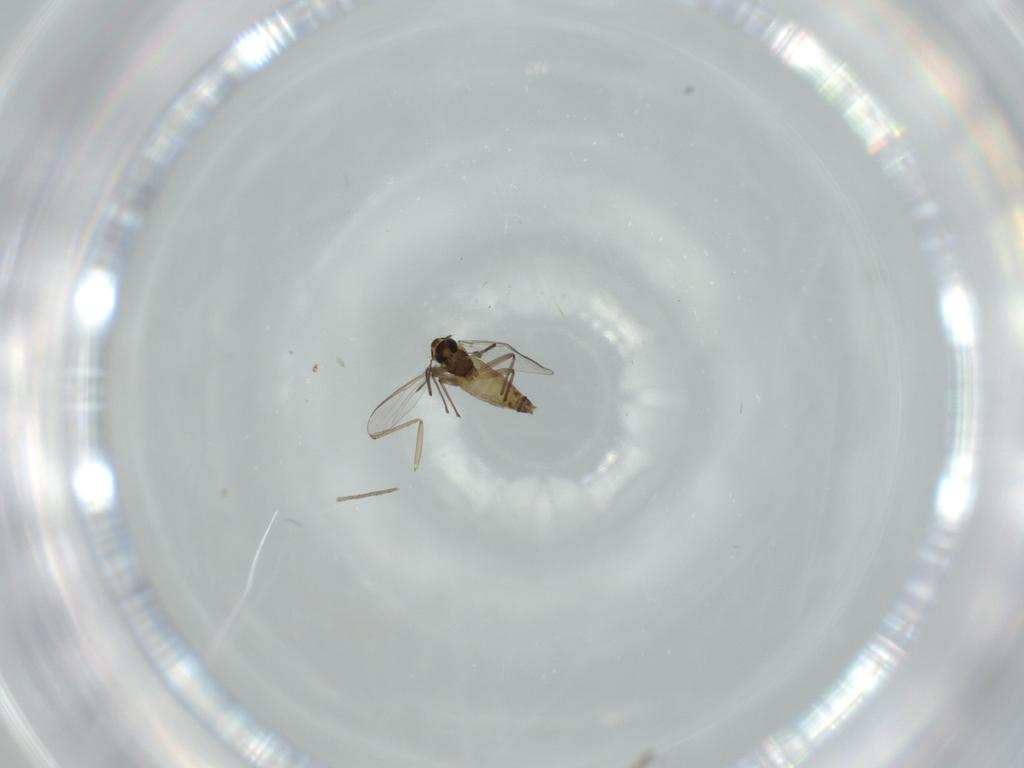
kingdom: Animalia
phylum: Arthropoda
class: Insecta
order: Diptera
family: Chironomidae
